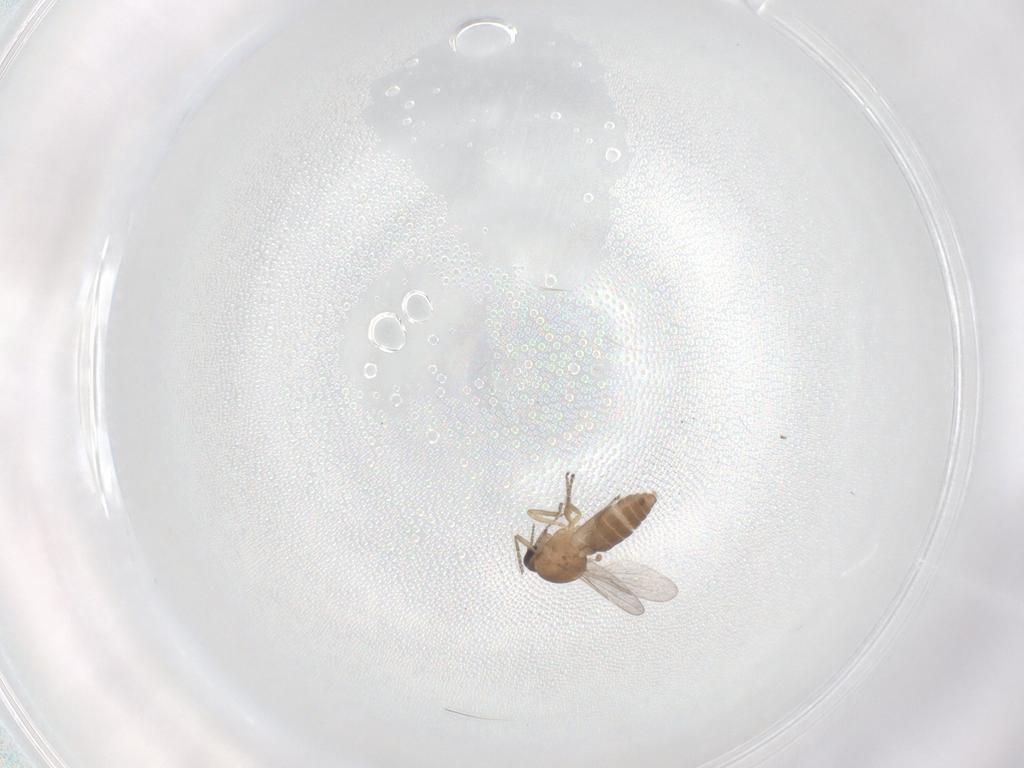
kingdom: Animalia
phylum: Arthropoda
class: Insecta
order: Diptera
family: Ceratopogonidae
